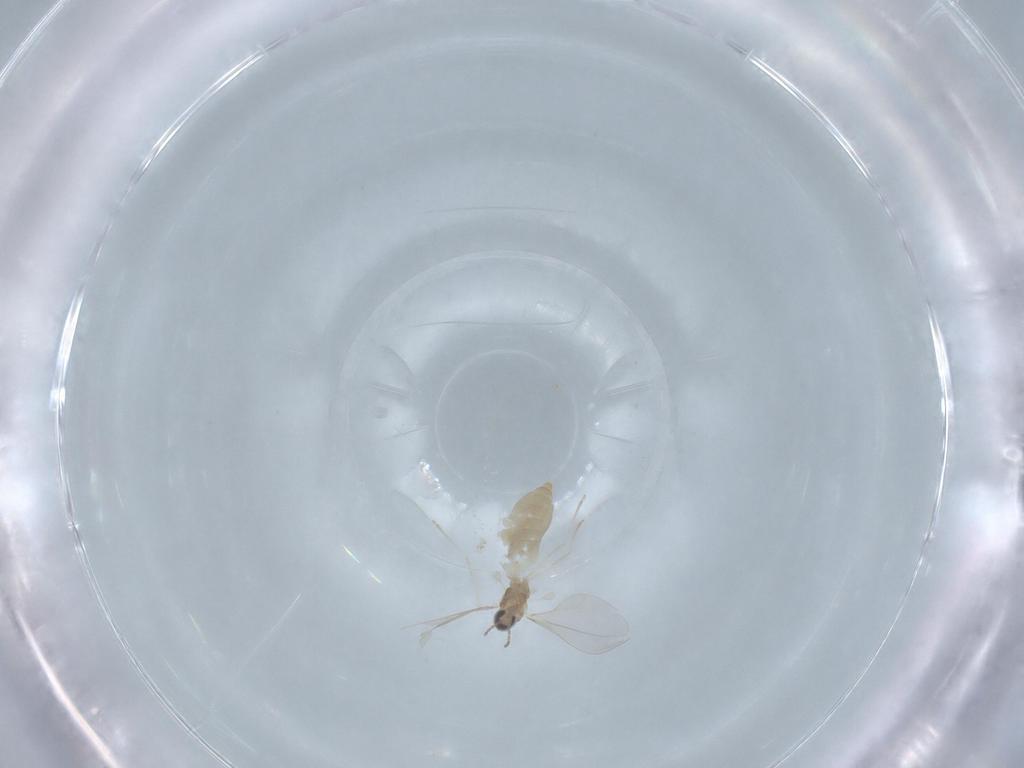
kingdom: Animalia
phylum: Arthropoda
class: Insecta
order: Diptera
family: Cecidomyiidae
